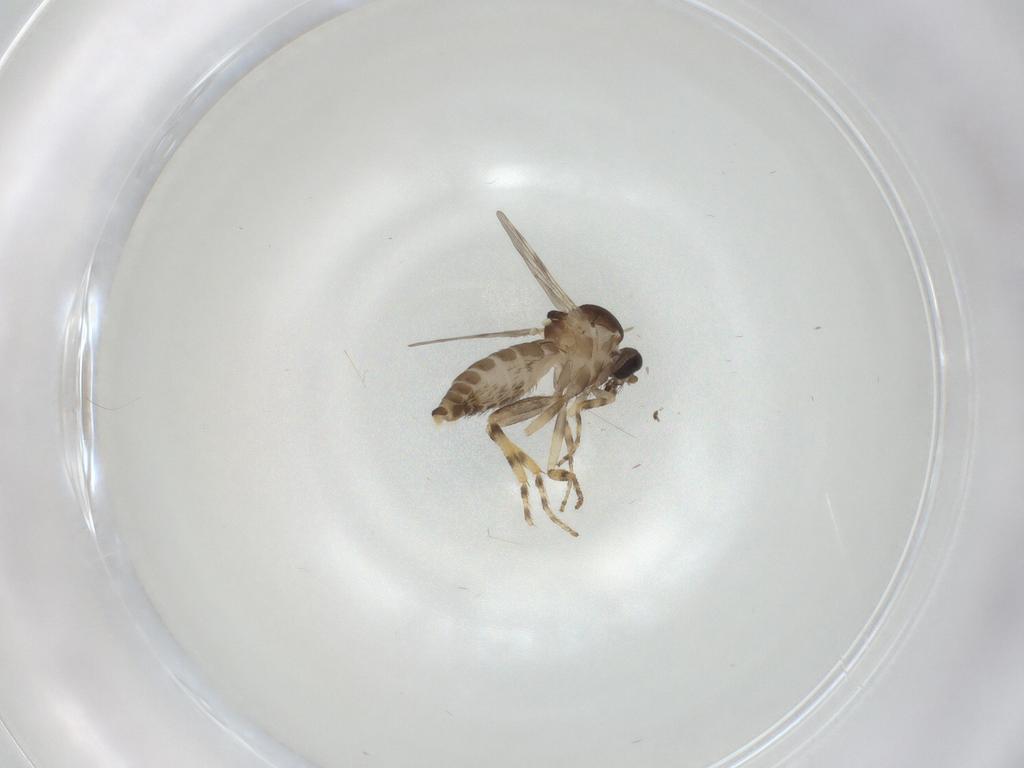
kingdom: Animalia
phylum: Arthropoda
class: Insecta
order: Diptera
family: Ceratopogonidae
